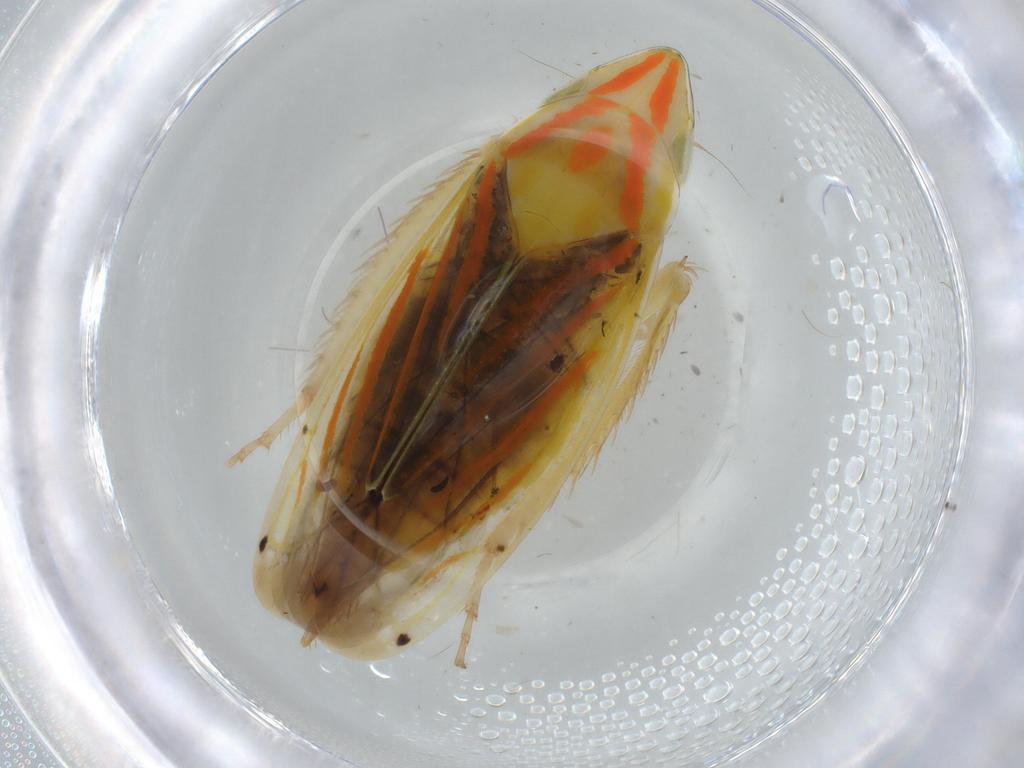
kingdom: Animalia
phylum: Arthropoda
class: Insecta
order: Hemiptera
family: Cicadellidae
